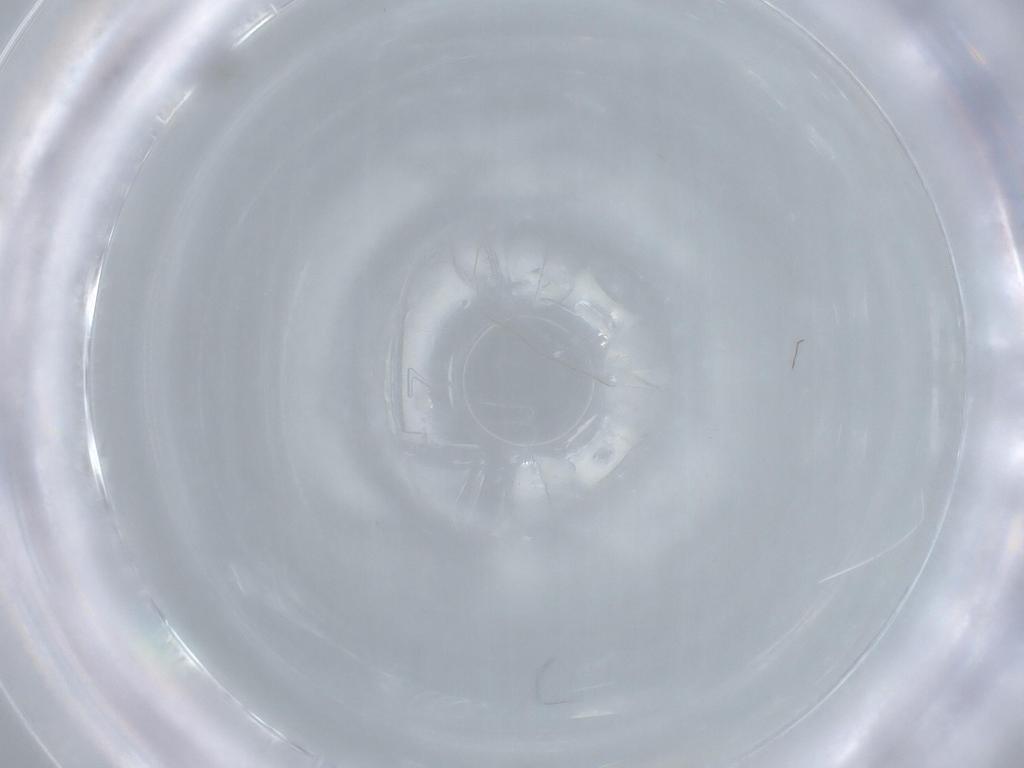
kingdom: Animalia
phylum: Arthropoda
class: Insecta
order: Hymenoptera
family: Aphelinidae
